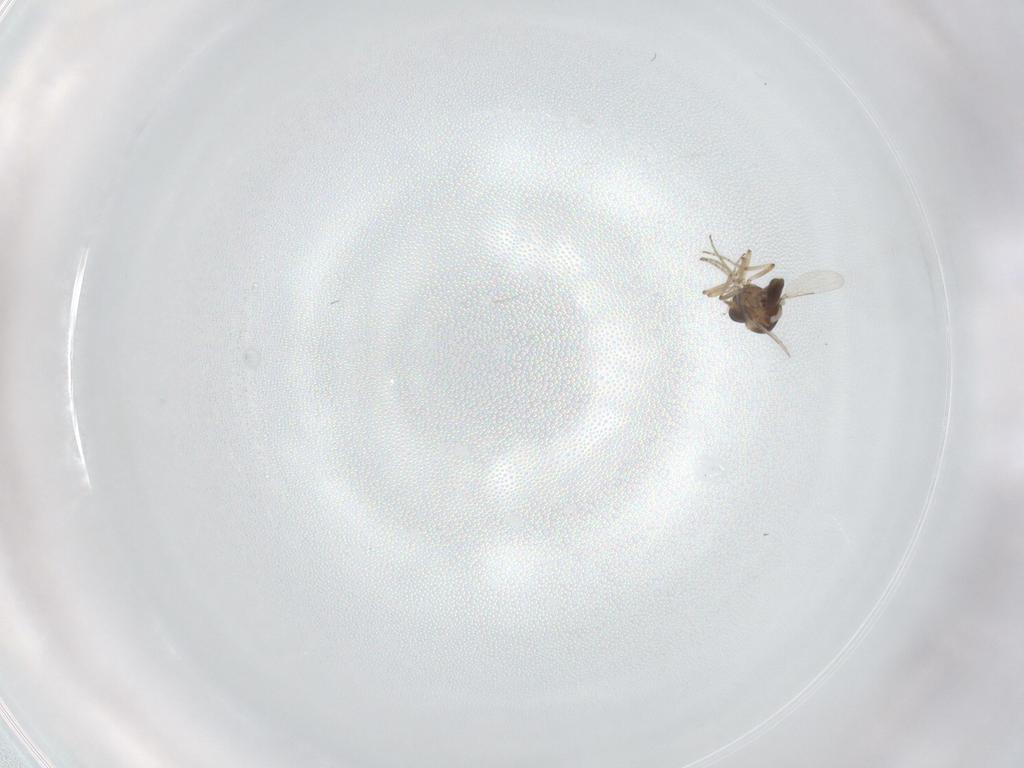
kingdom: Animalia
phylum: Arthropoda
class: Insecta
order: Diptera
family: Ceratopogonidae
